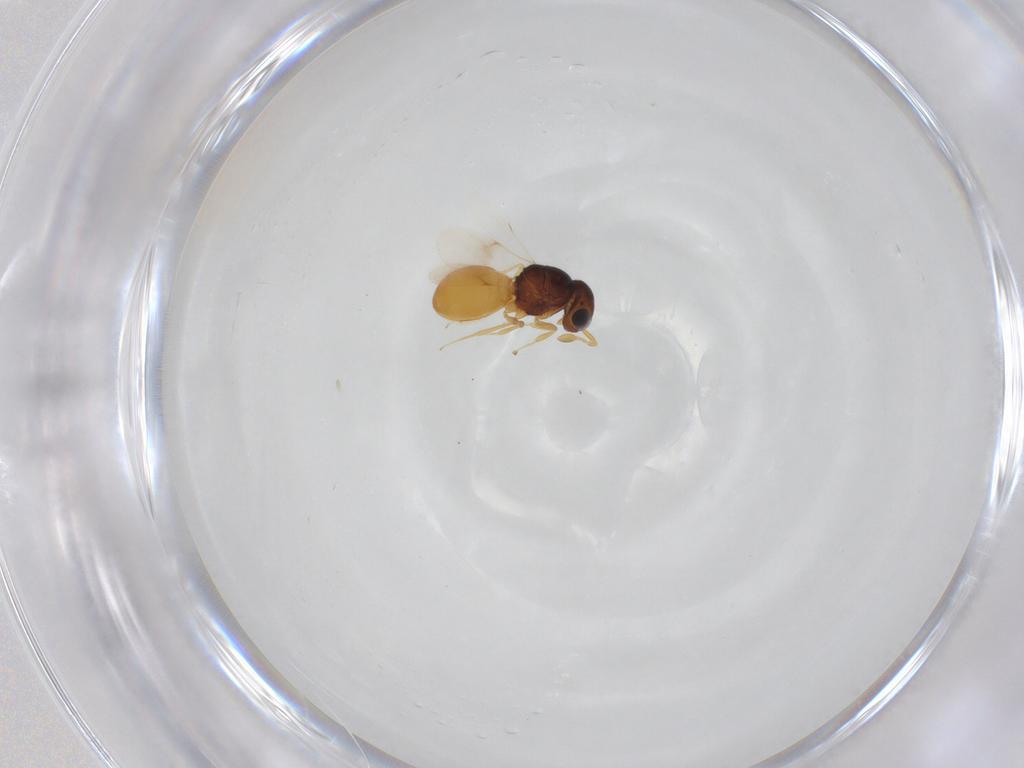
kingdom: Animalia
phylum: Arthropoda
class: Insecta
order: Hymenoptera
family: Scelionidae
